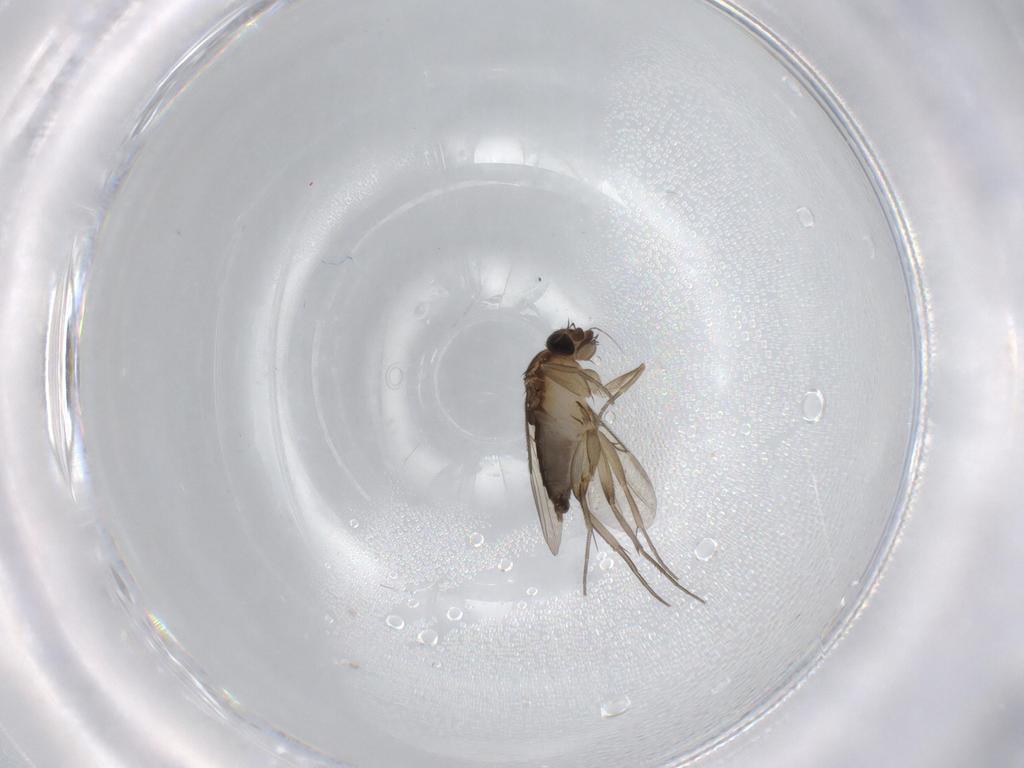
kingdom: Animalia
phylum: Arthropoda
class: Insecta
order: Diptera
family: Phoridae
